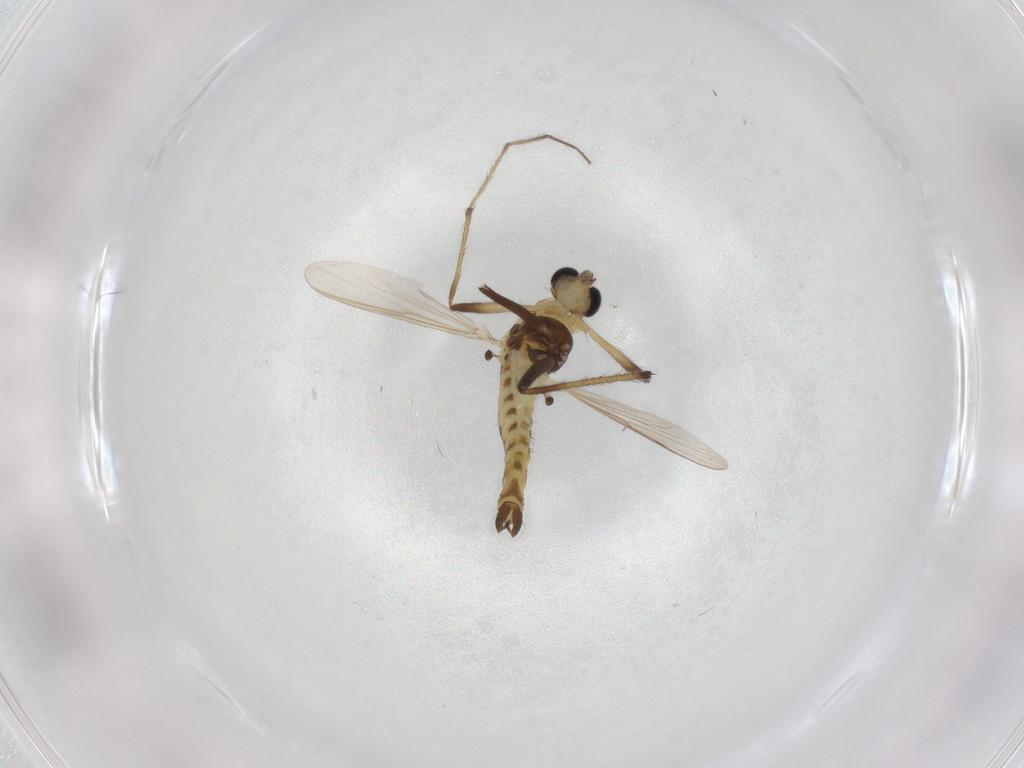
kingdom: Animalia
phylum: Arthropoda
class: Insecta
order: Diptera
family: Chironomidae
